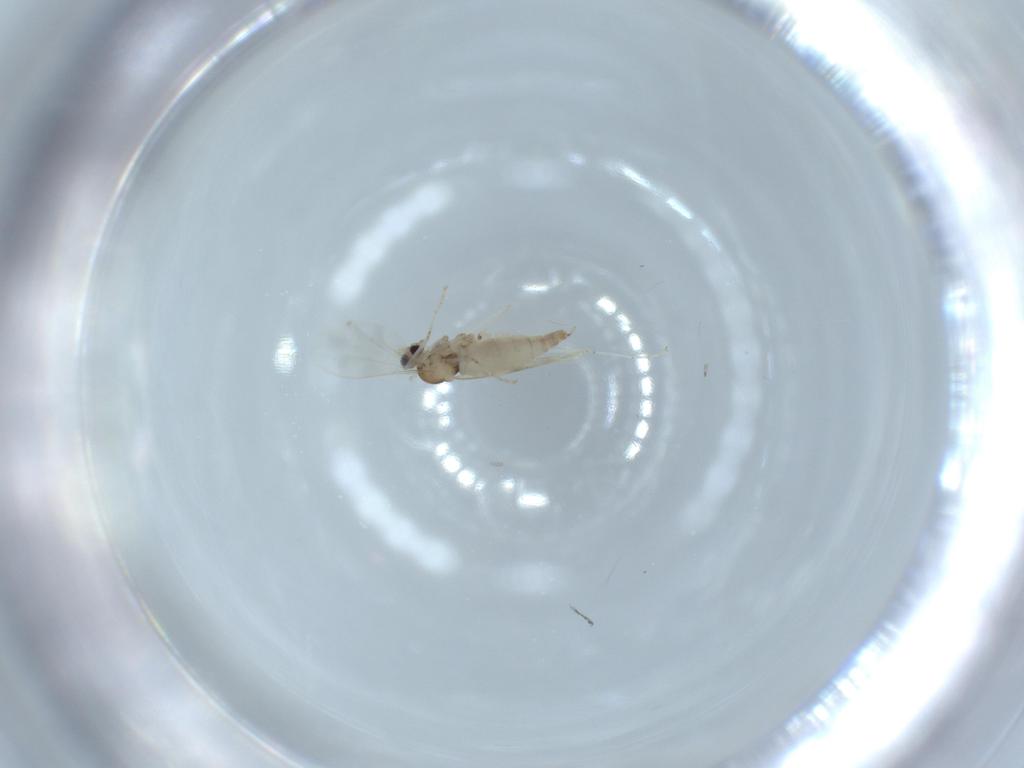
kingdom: Animalia
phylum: Arthropoda
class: Insecta
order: Diptera
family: Cecidomyiidae
